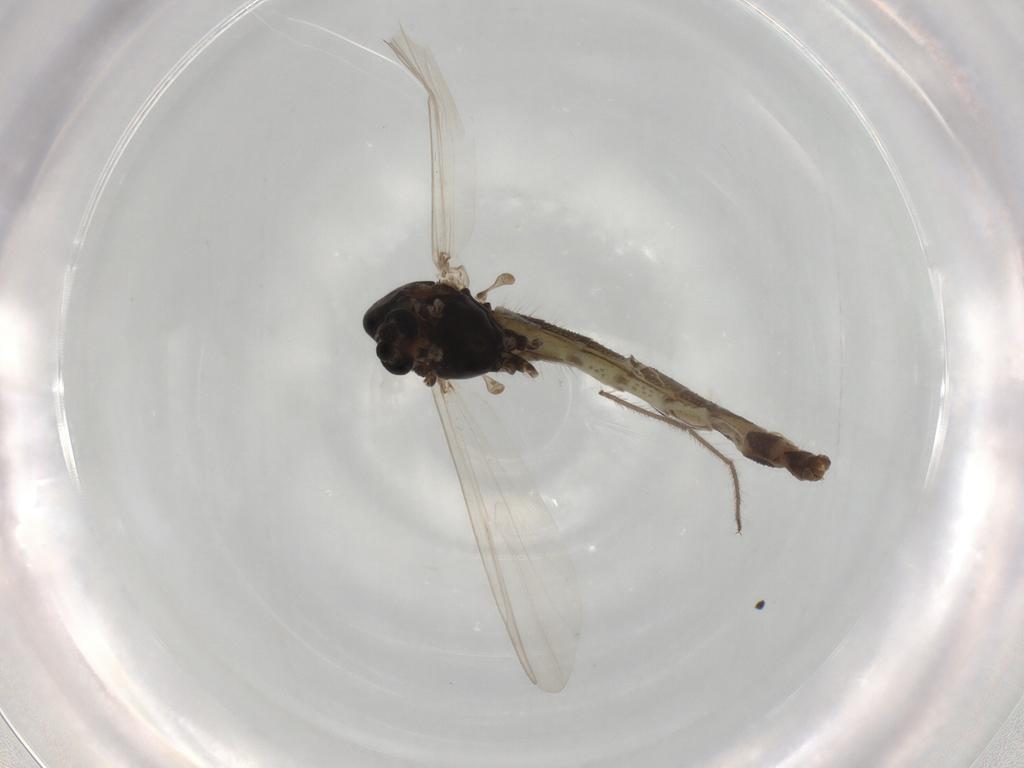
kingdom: Animalia
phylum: Arthropoda
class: Insecta
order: Diptera
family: Chironomidae
